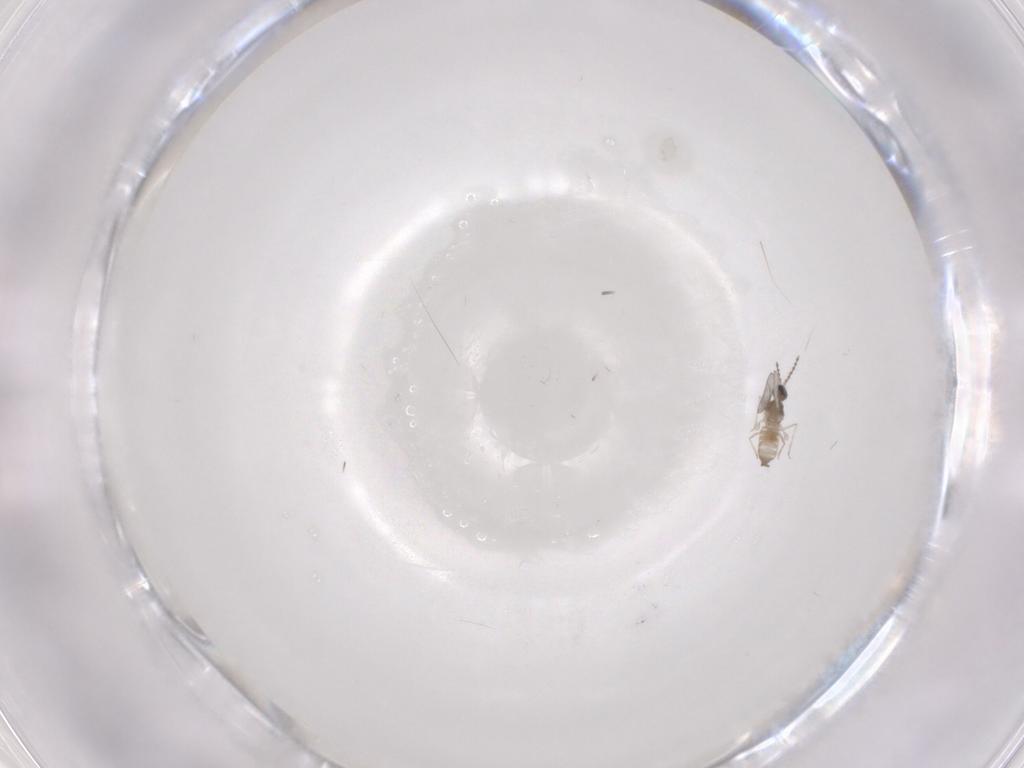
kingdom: Animalia
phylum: Arthropoda
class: Insecta
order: Diptera
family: Cecidomyiidae
